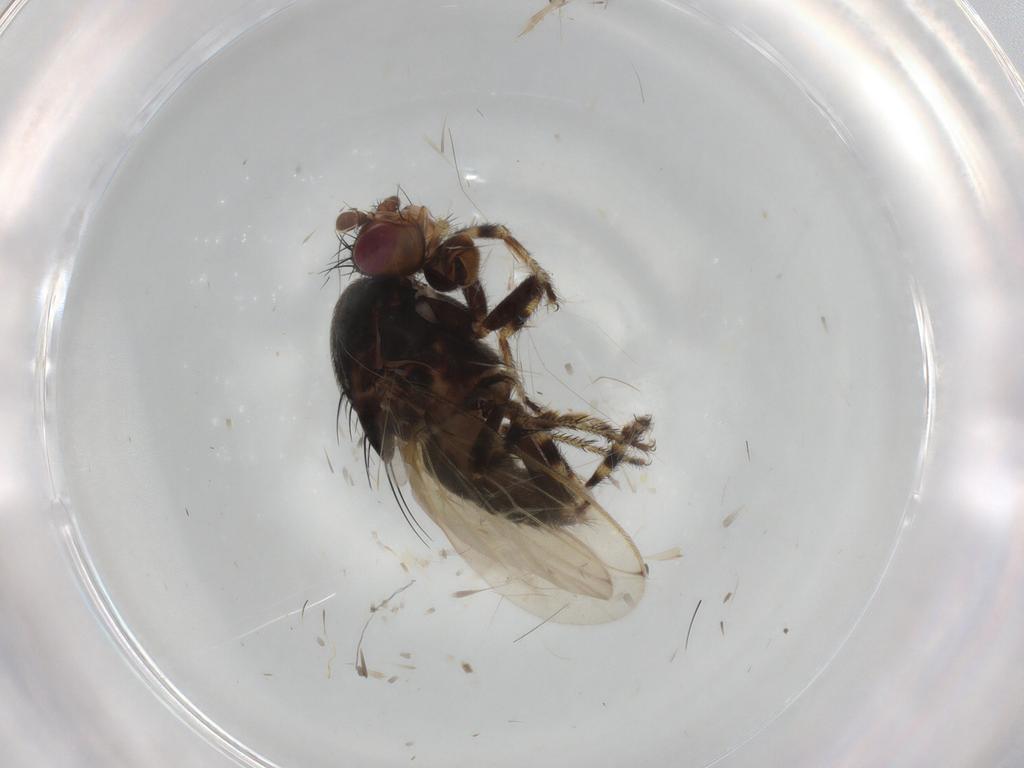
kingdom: Animalia
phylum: Arthropoda
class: Insecta
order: Diptera
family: Sphaeroceridae
